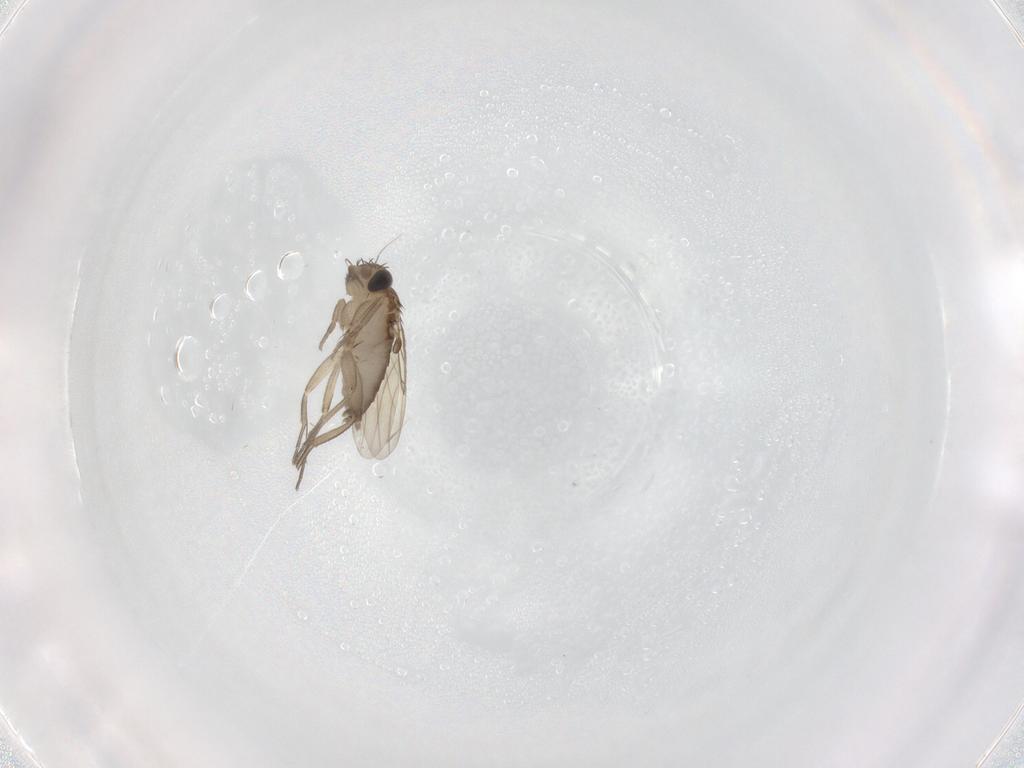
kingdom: Animalia
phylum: Arthropoda
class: Insecta
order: Diptera
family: Phoridae
